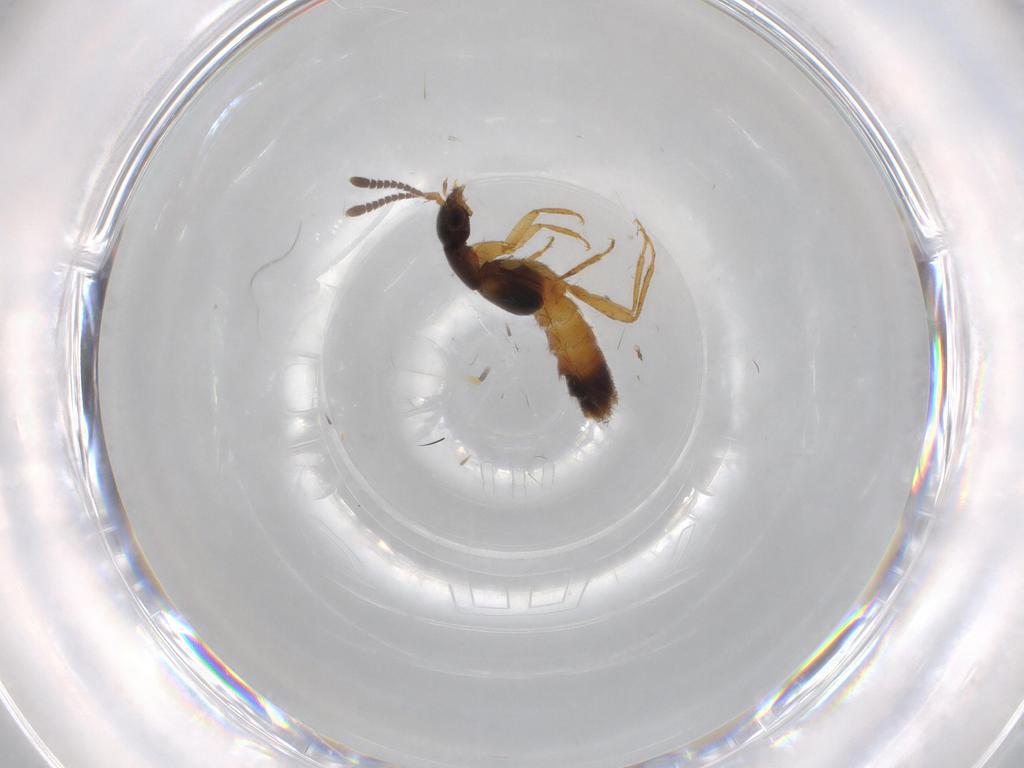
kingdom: Animalia
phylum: Arthropoda
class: Insecta
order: Coleoptera
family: Staphylinidae
